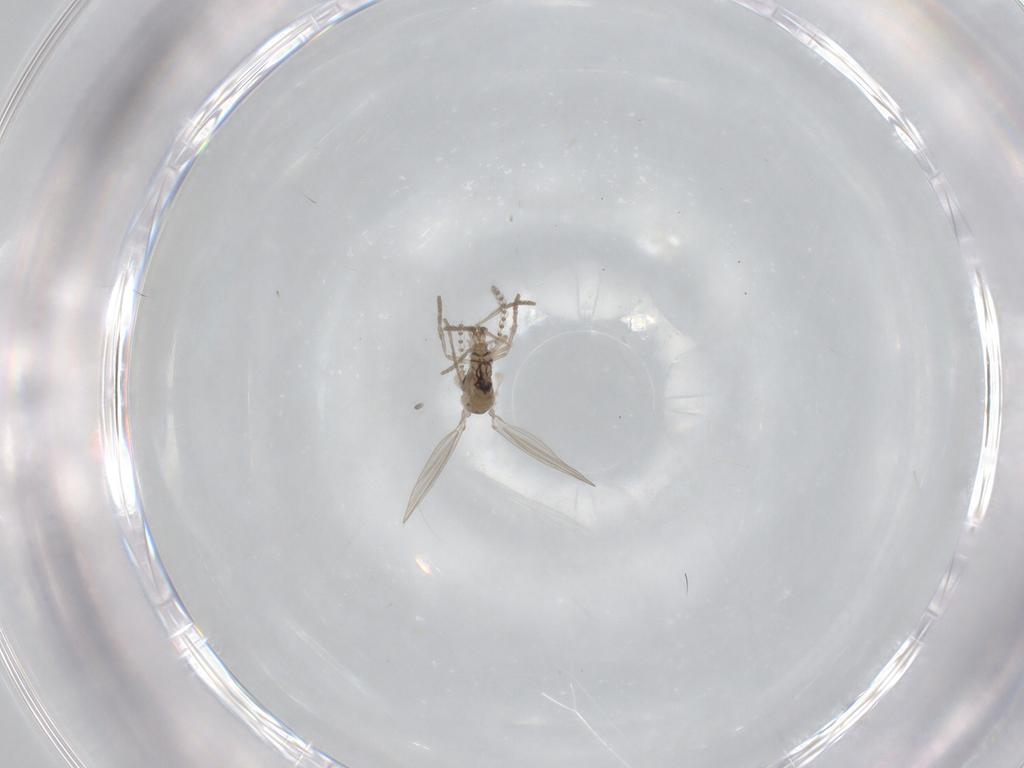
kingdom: Animalia
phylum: Arthropoda
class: Insecta
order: Diptera
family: Psychodidae
